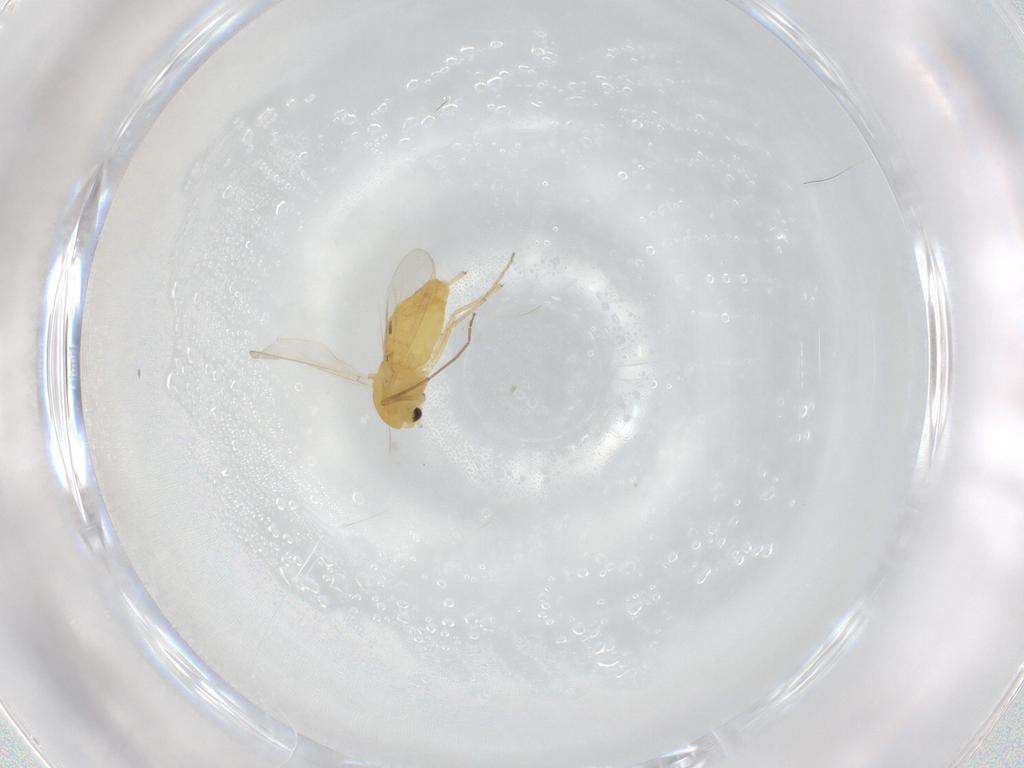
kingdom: Animalia
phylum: Arthropoda
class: Insecta
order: Diptera
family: Chironomidae
